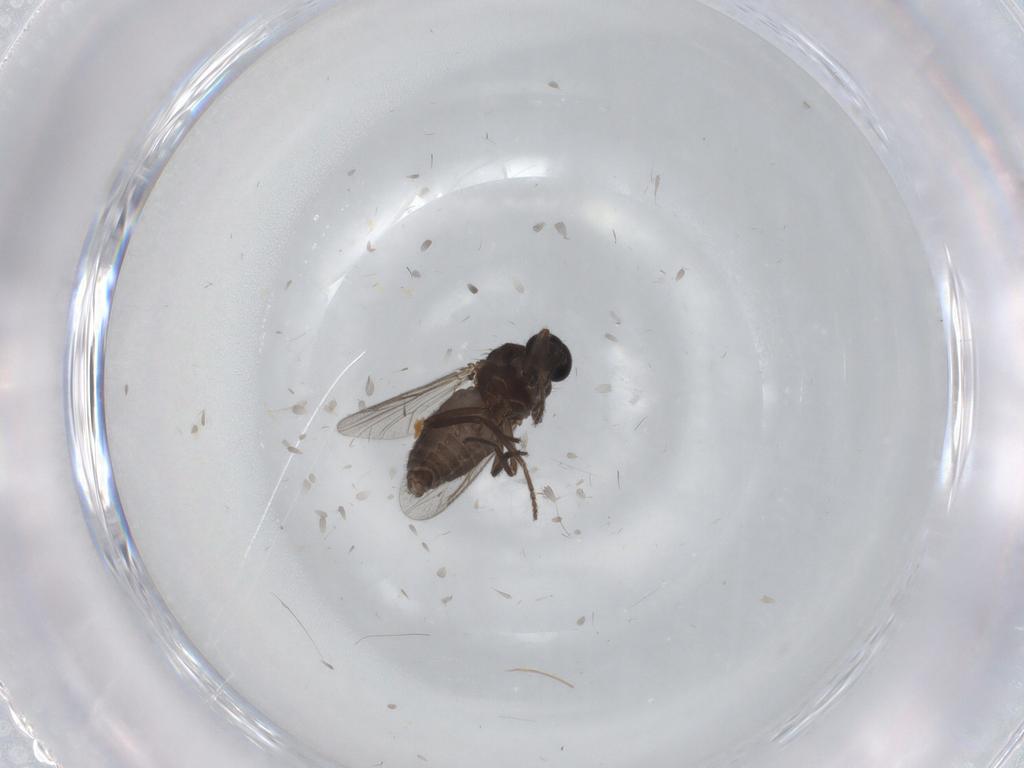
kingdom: Animalia
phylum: Arthropoda
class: Insecta
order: Diptera
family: Ceratopogonidae
